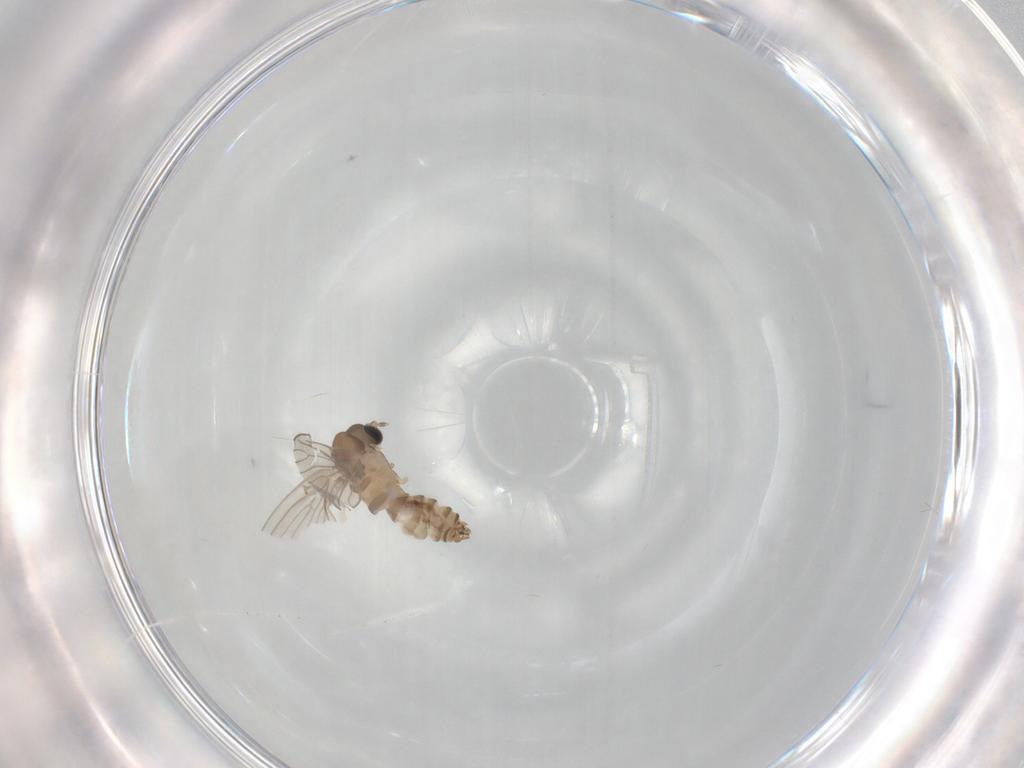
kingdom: Animalia
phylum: Arthropoda
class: Insecta
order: Diptera
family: Psychodidae
